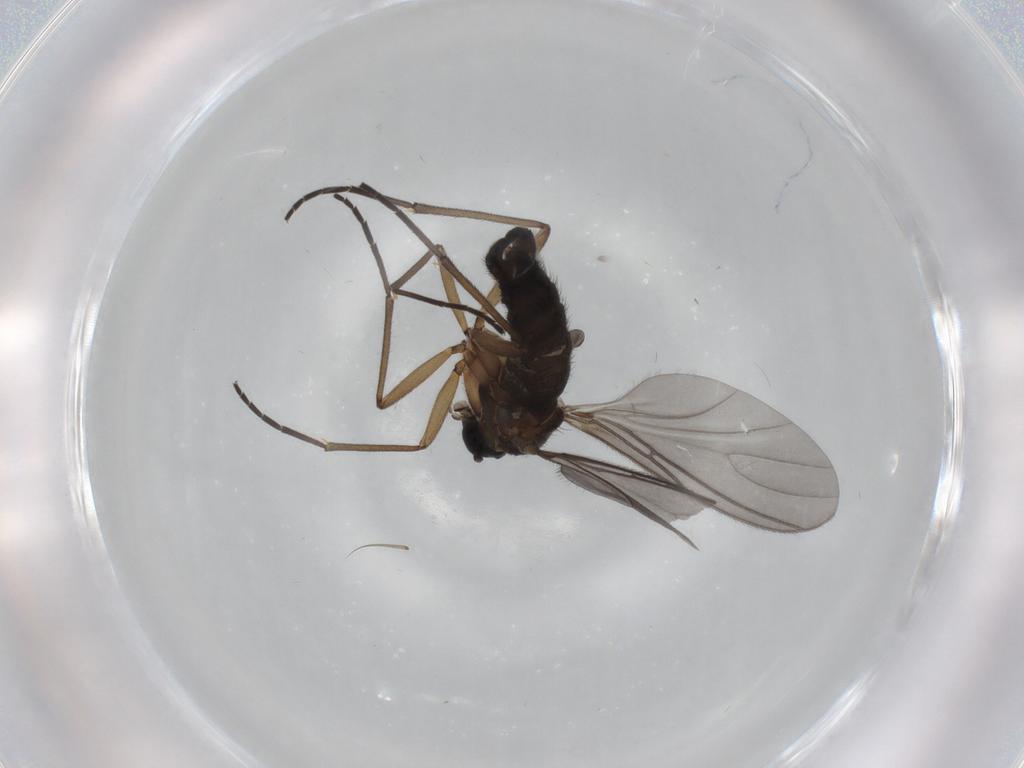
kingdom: Animalia
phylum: Arthropoda
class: Insecta
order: Diptera
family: Sciaridae
